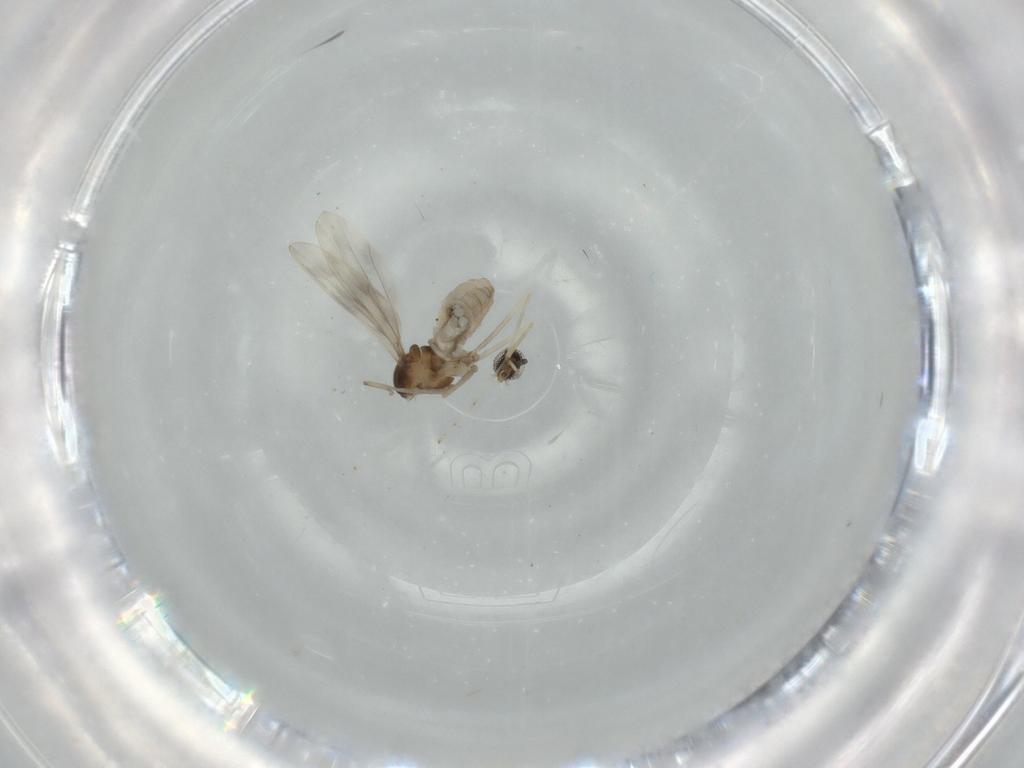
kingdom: Animalia
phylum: Arthropoda
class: Insecta
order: Diptera
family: Cecidomyiidae
